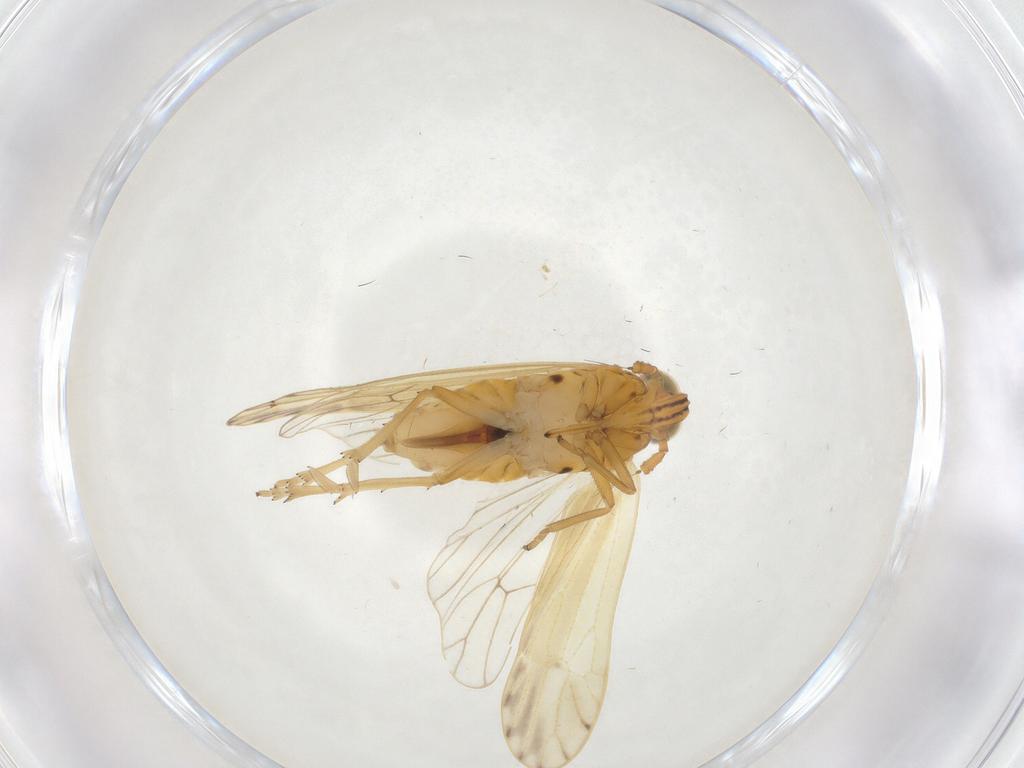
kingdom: Animalia
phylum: Arthropoda
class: Insecta
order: Hemiptera
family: Delphacidae
